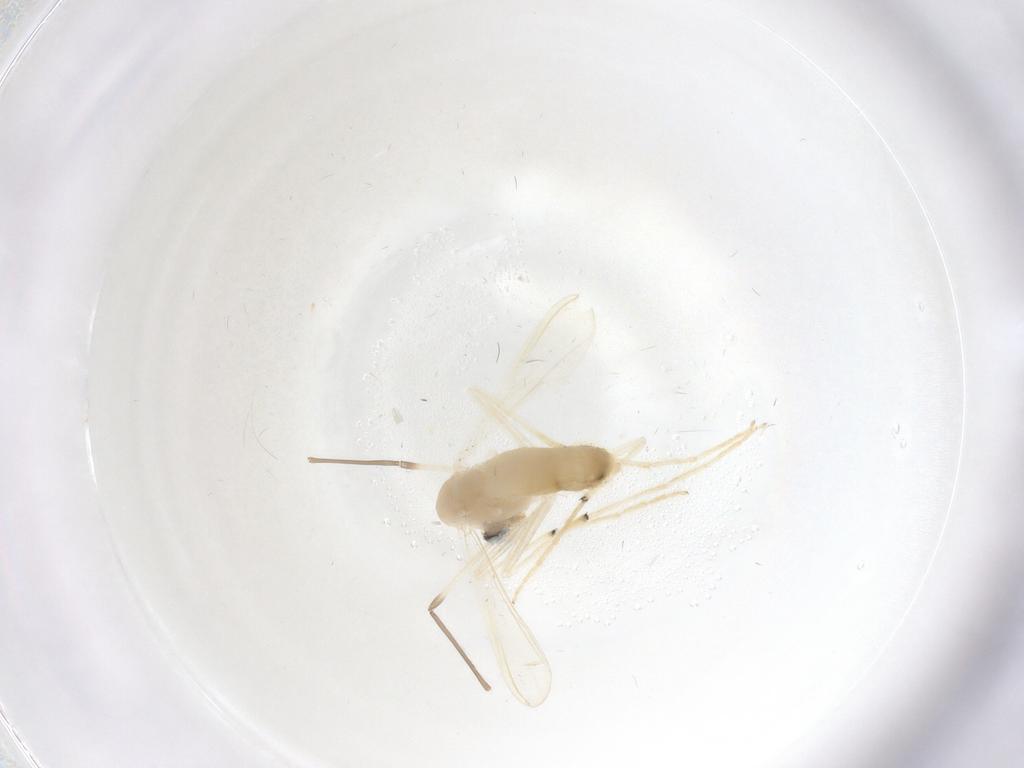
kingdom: Animalia
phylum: Arthropoda
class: Insecta
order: Diptera
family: Chironomidae
